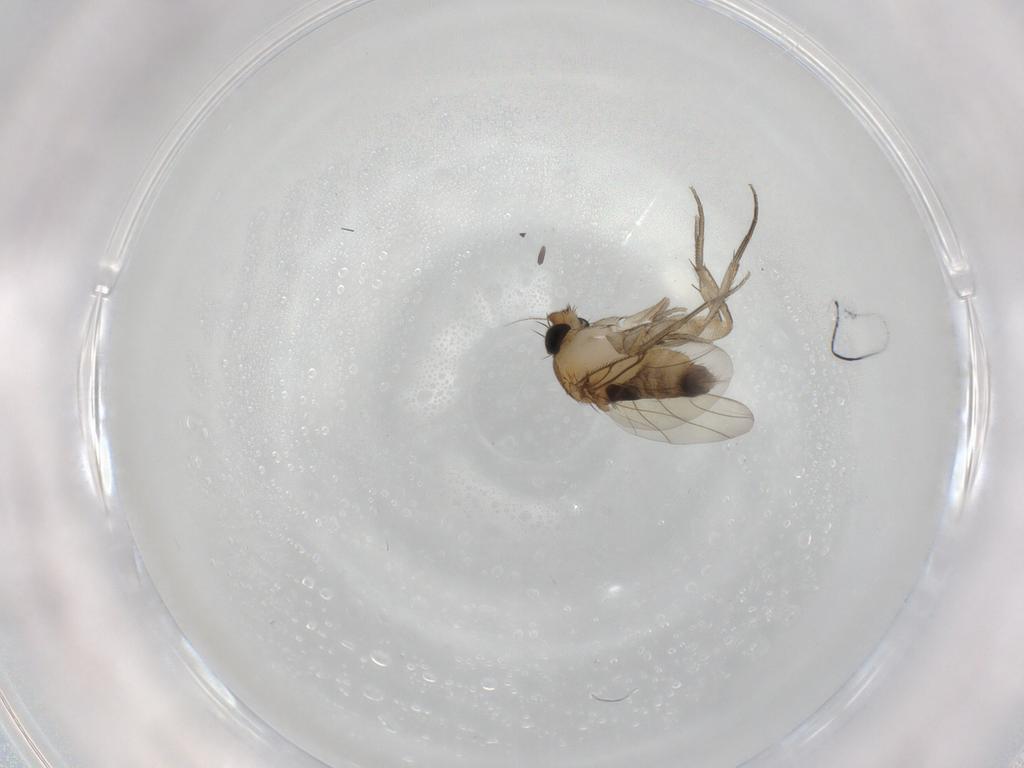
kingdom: Animalia
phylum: Arthropoda
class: Insecta
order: Diptera
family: Phoridae
